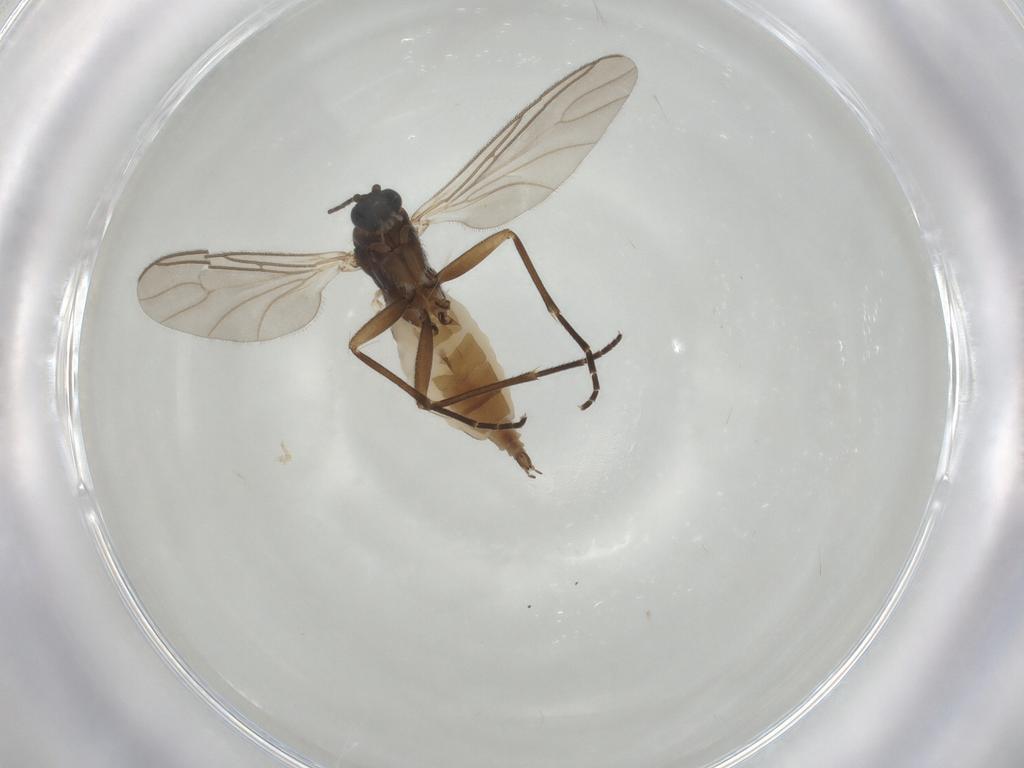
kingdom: Animalia
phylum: Arthropoda
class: Insecta
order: Diptera
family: Sciaridae
